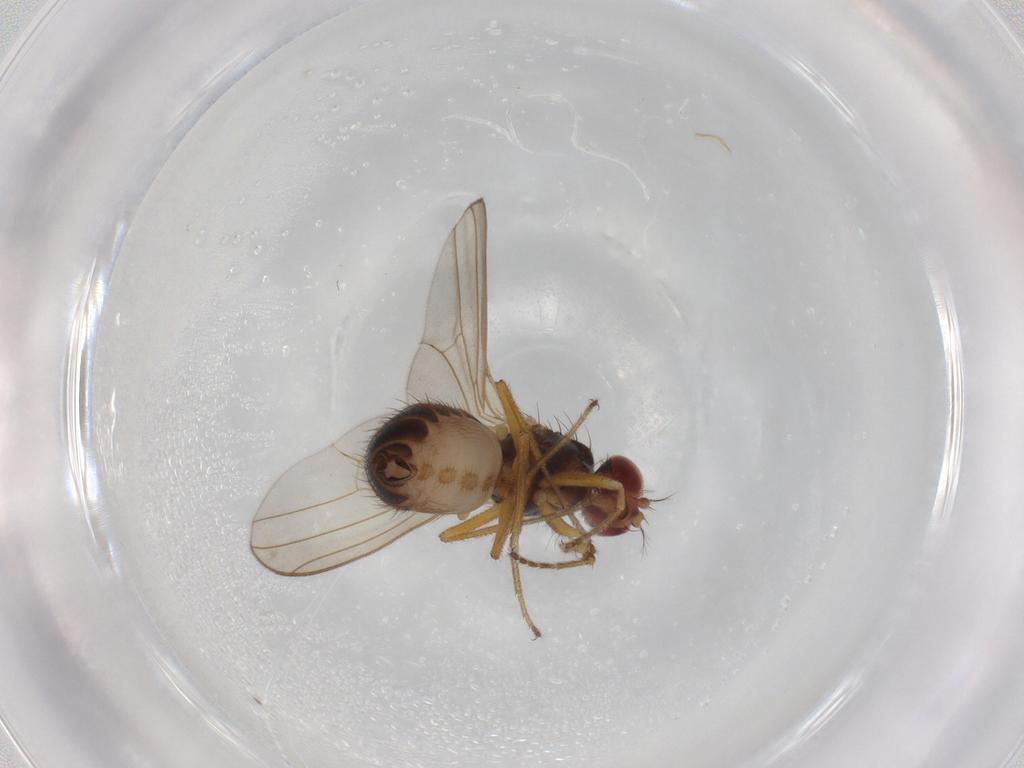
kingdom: Animalia
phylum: Arthropoda
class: Insecta
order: Diptera
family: Drosophilidae
